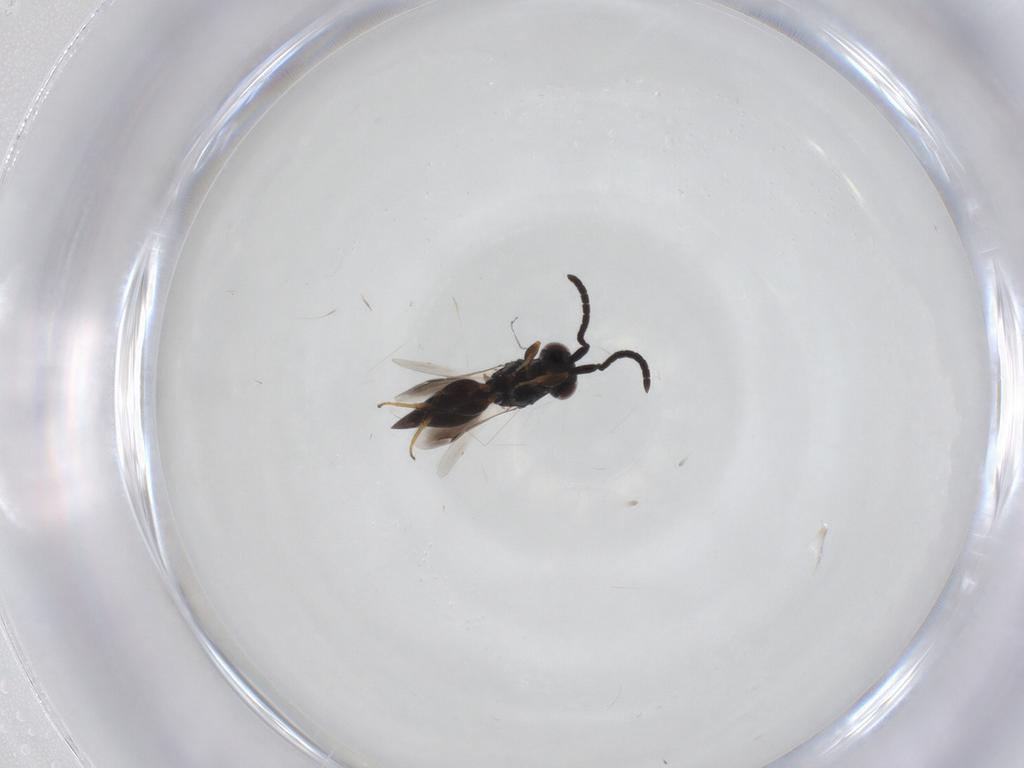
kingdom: Animalia
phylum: Arthropoda
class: Insecta
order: Hymenoptera
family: Megaspilidae
